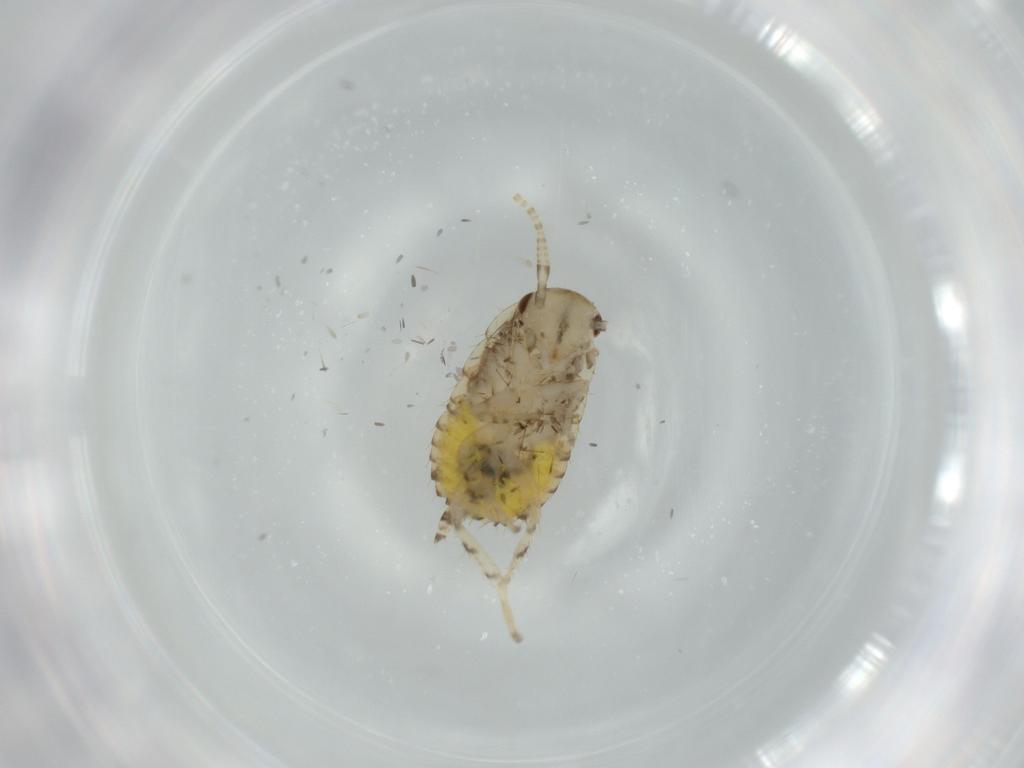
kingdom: Animalia
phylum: Arthropoda
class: Insecta
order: Blattodea
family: Ectobiidae
